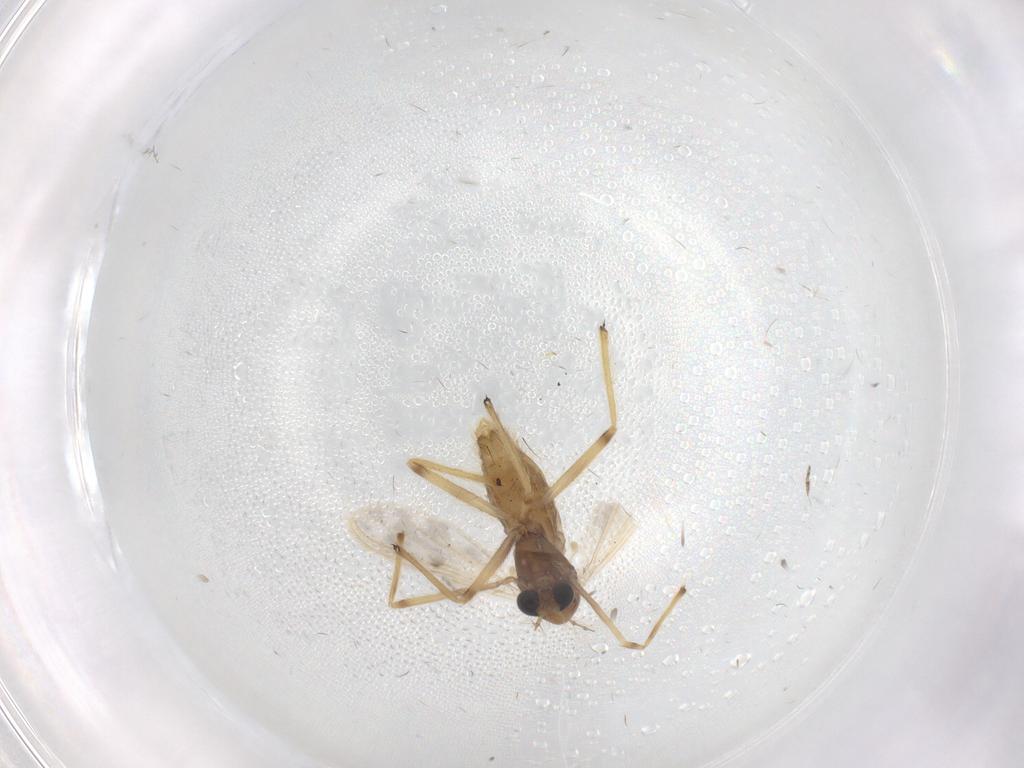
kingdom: Animalia
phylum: Arthropoda
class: Insecta
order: Diptera
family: Chironomidae
